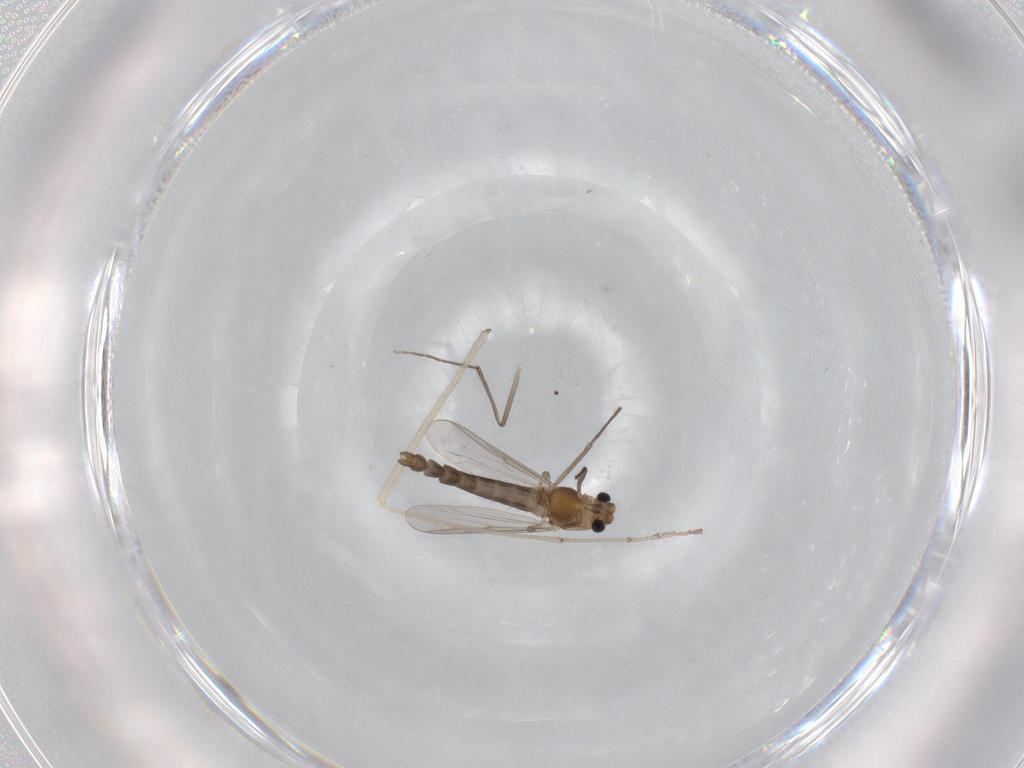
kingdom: Animalia
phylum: Arthropoda
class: Insecta
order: Diptera
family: Chironomidae
